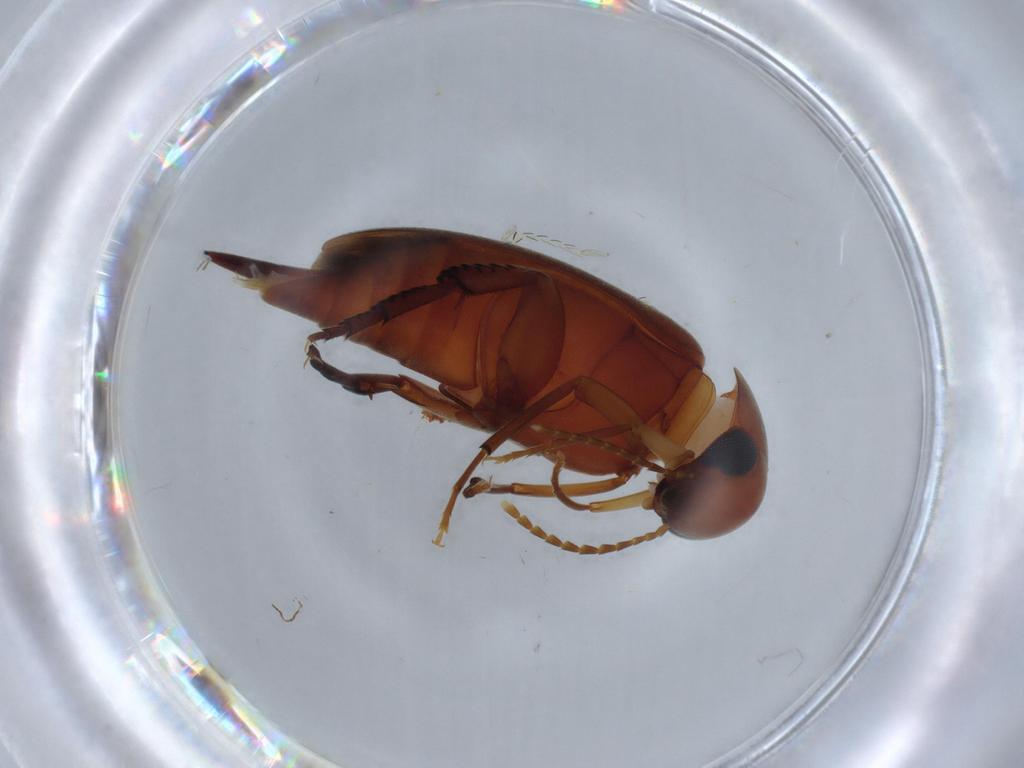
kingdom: Animalia
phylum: Arthropoda
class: Insecta
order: Coleoptera
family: Mordellidae
